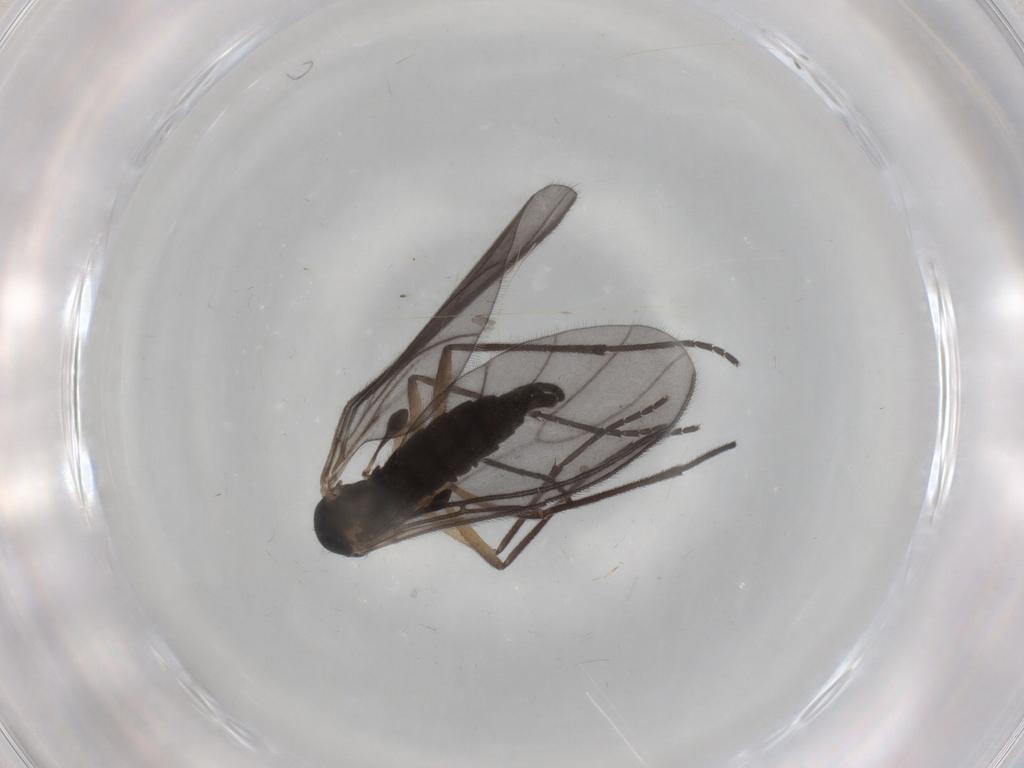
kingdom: Animalia
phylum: Arthropoda
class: Insecta
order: Diptera
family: Sciaridae
